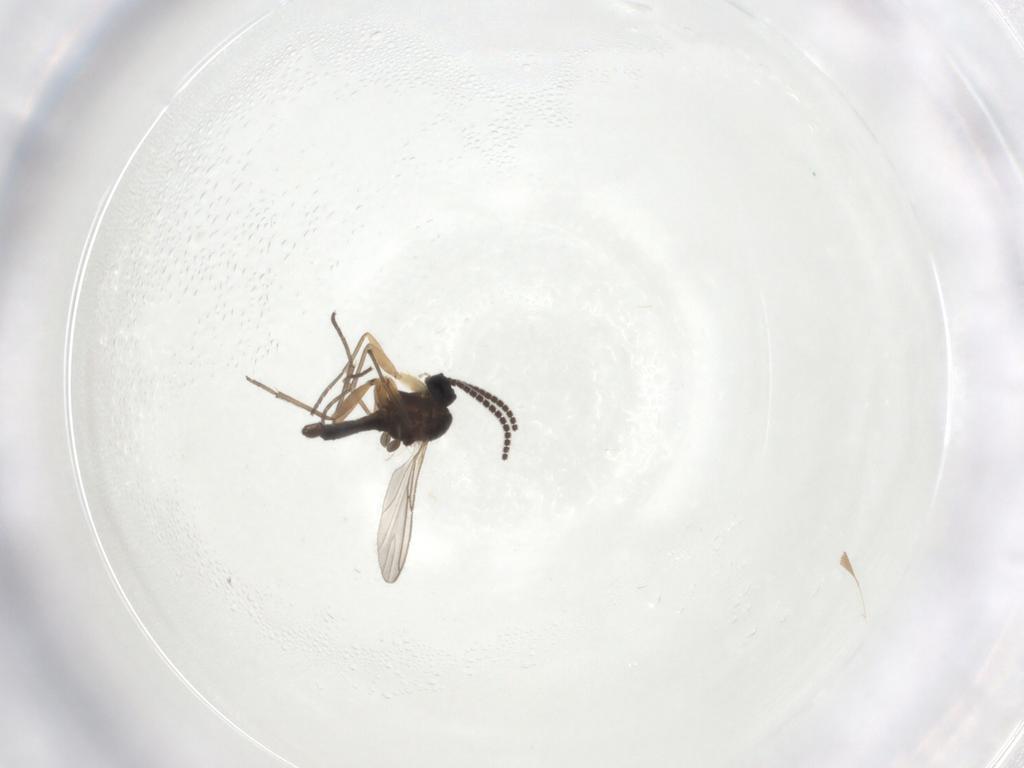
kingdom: Animalia
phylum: Arthropoda
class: Insecta
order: Diptera
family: Sciaridae
